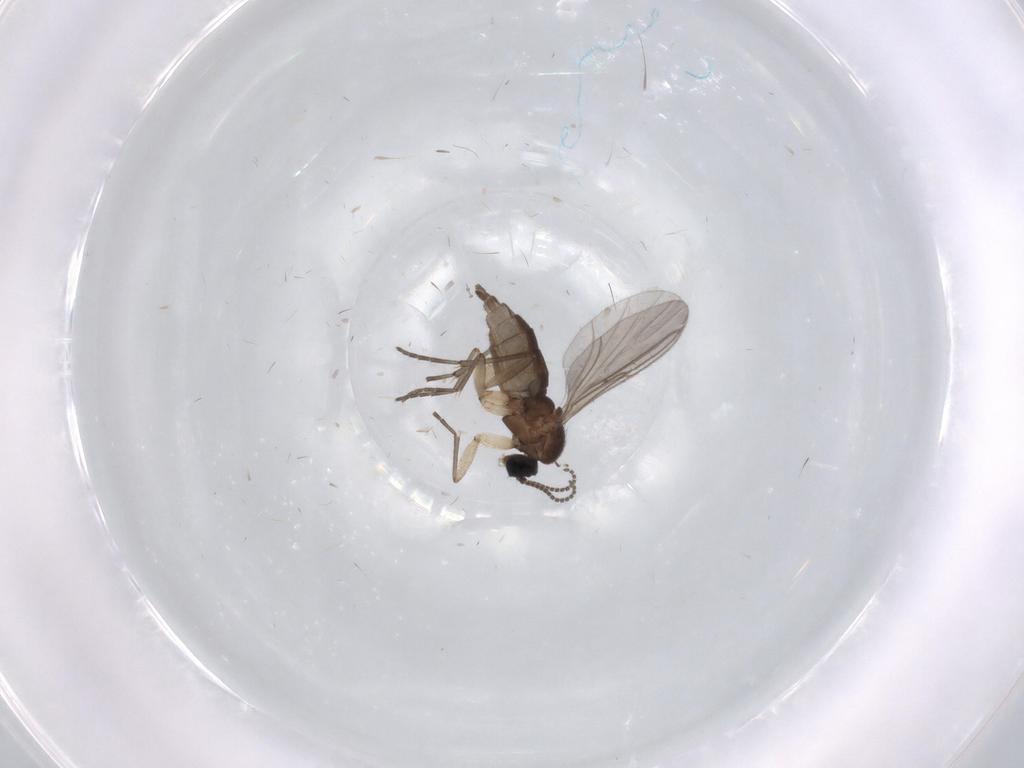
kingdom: Animalia
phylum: Arthropoda
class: Insecta
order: Diptera
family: Sciaridae
